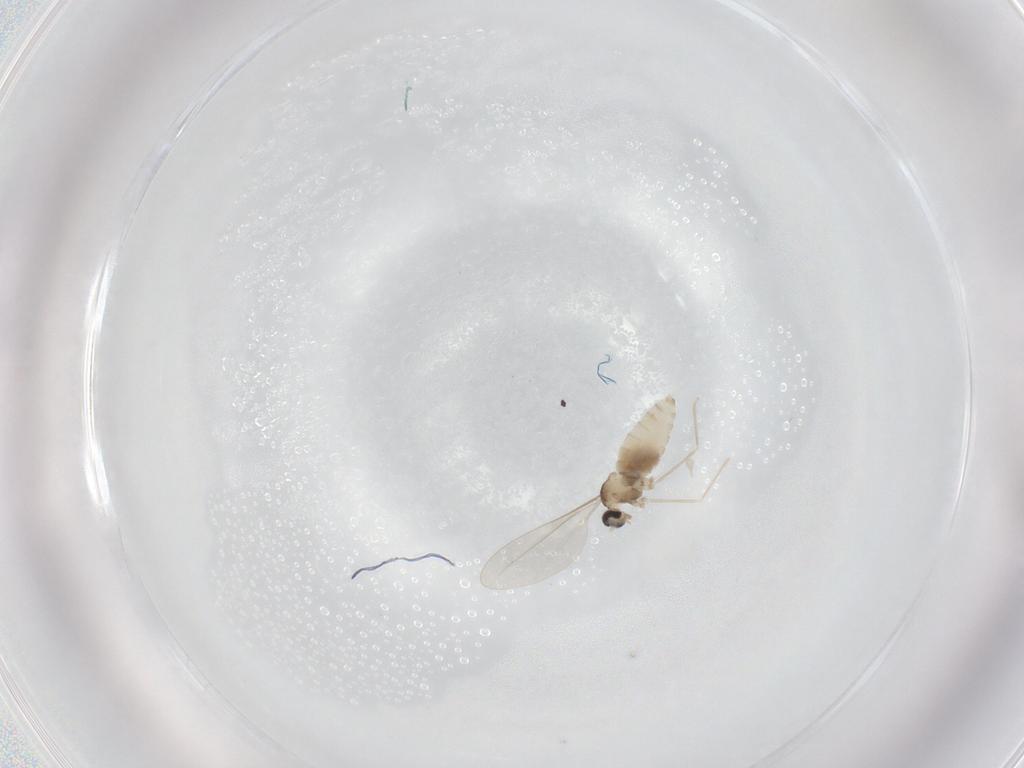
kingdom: Animalia
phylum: Arthropoda
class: Insecta
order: Diptera
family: Cecidomyiidae
